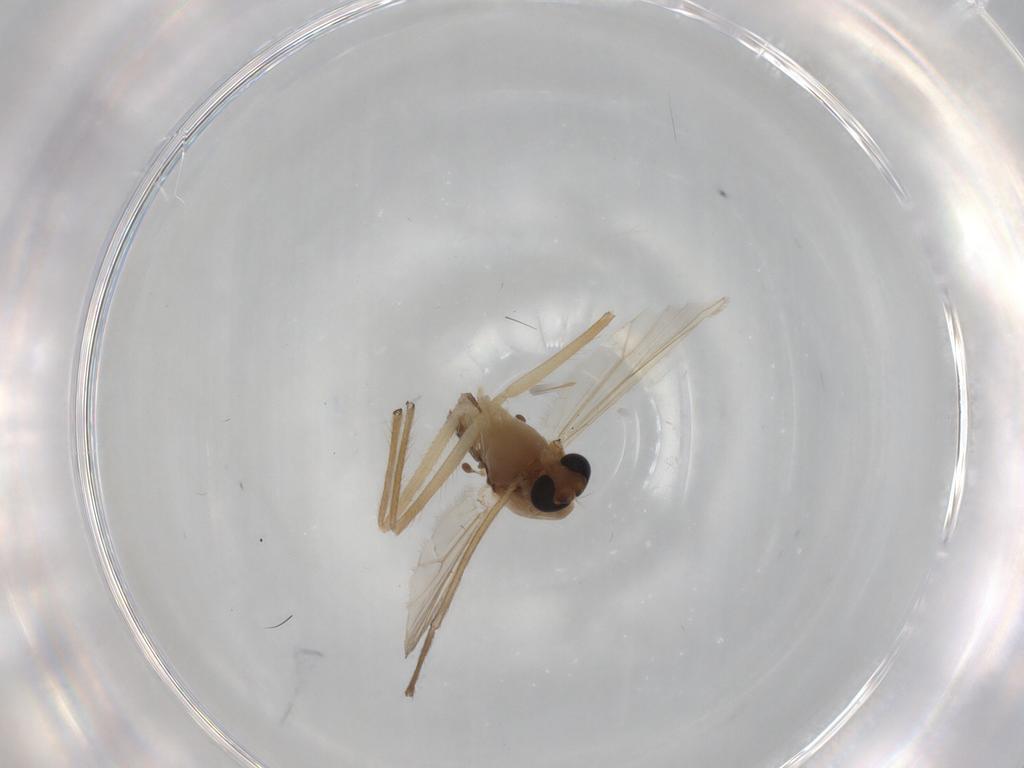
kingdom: Animalia
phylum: Arthropoda
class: Insecta
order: Diptera
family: Chironomidae
